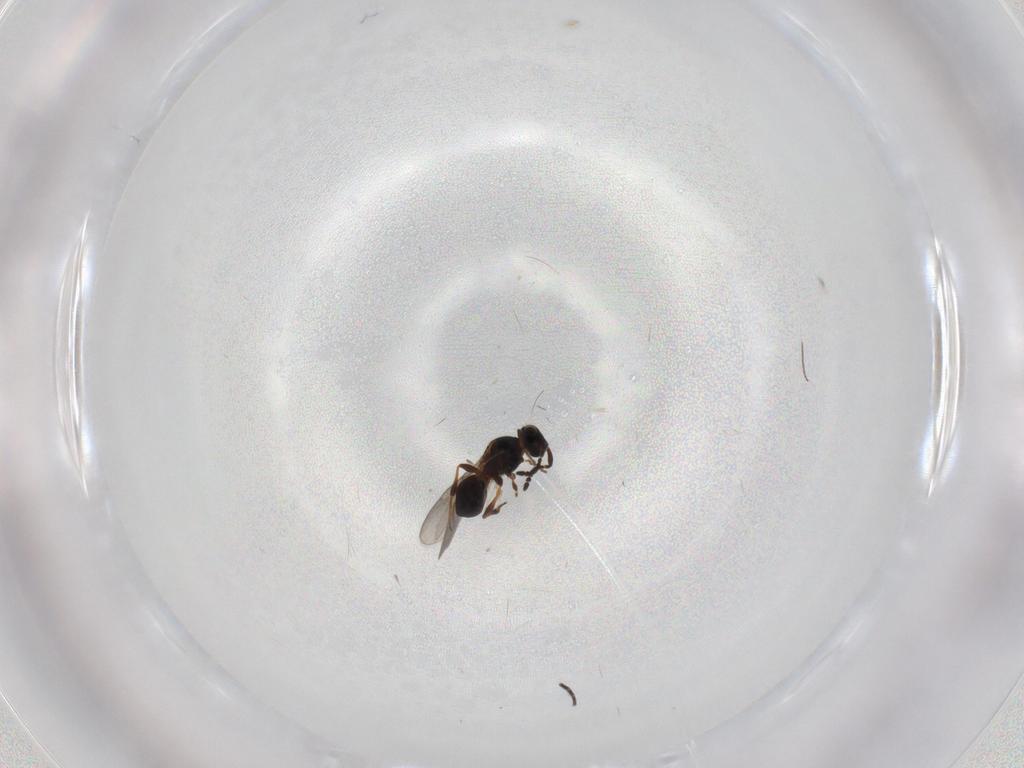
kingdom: Animalia
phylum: Arthropoda
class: Insecta
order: Hymenoptera
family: Platygastridae
